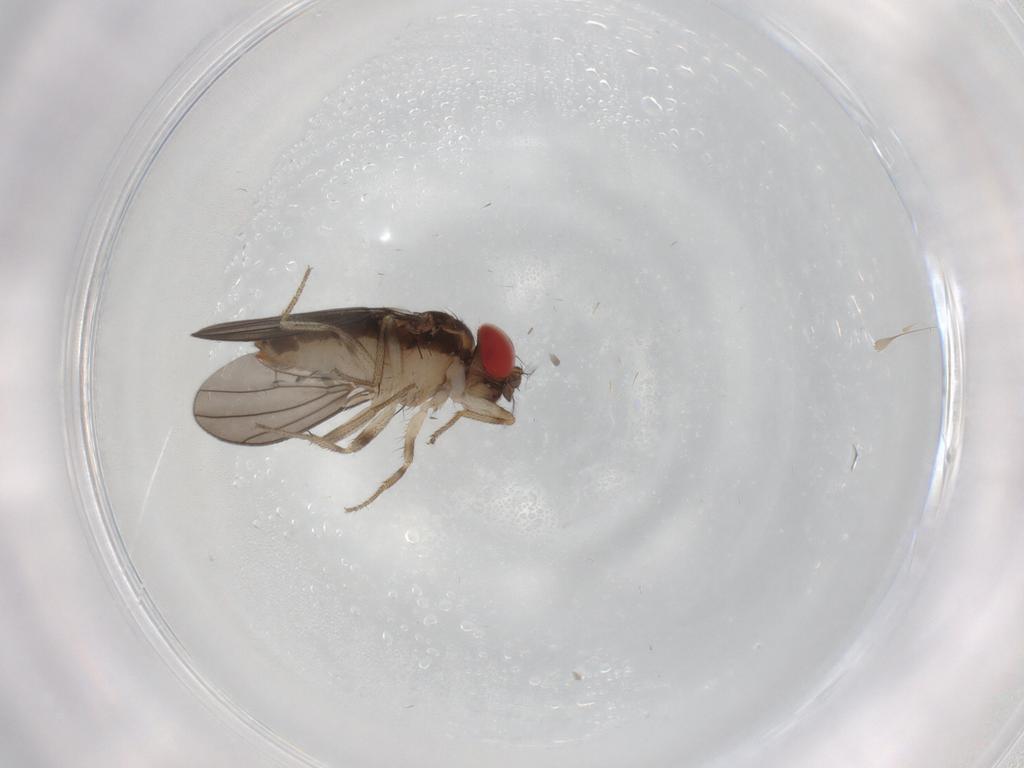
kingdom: Animalia
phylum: Arthropoda
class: Insecta
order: Diptera
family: Drosophilidae
